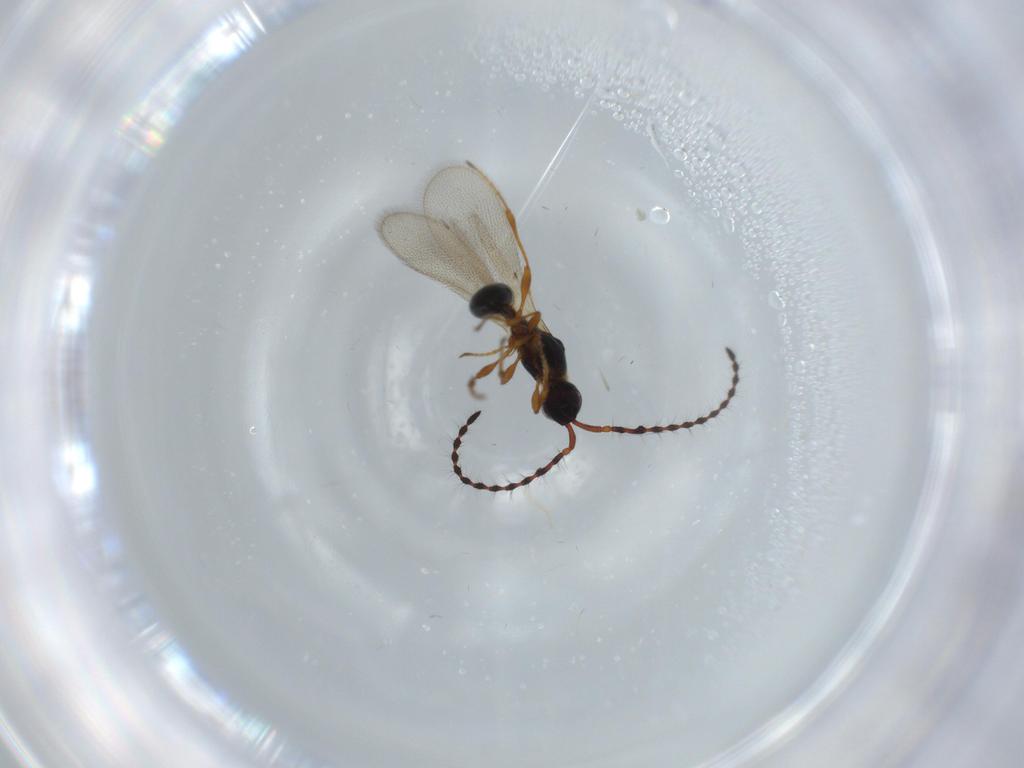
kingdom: Animalia
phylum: Arthropoda
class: Insecta
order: Hymenoptera
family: Diapriidae
